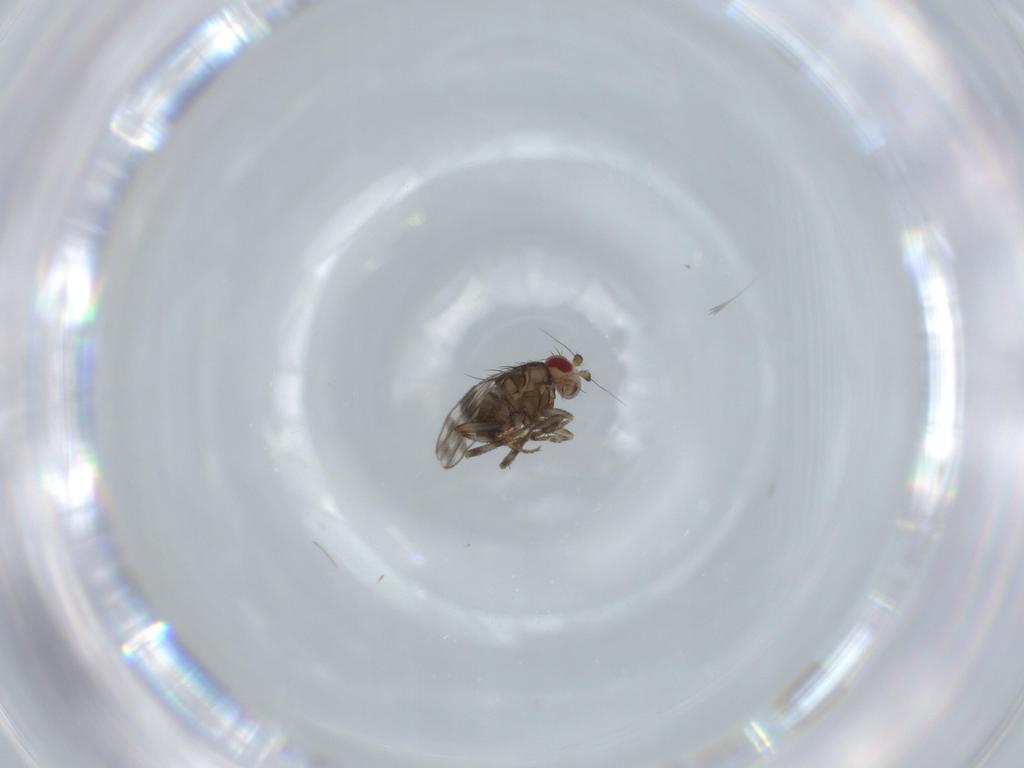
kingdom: Animalia
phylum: Arthropoda
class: Insecta
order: Diptera
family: Sphaeroceridae
